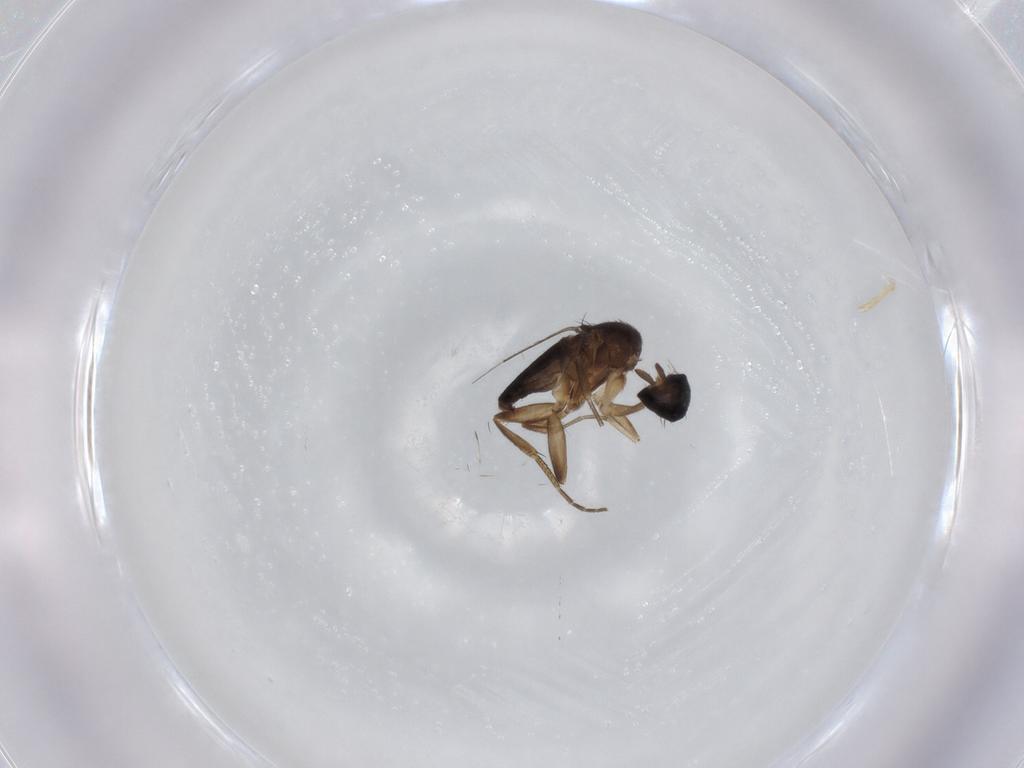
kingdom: Animalia
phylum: Arthropoda
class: Insecta
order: Diptera
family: Phoridae
